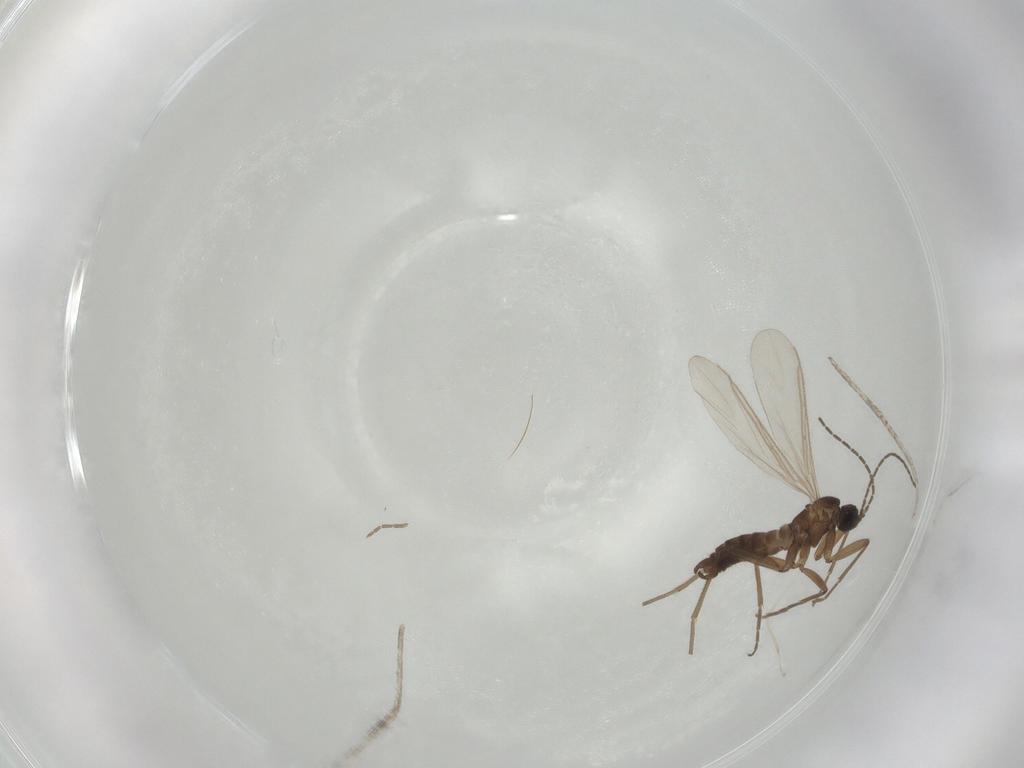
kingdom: Animalia
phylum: Arthropoda
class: Insecta
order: Diptera
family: Sciaridae
